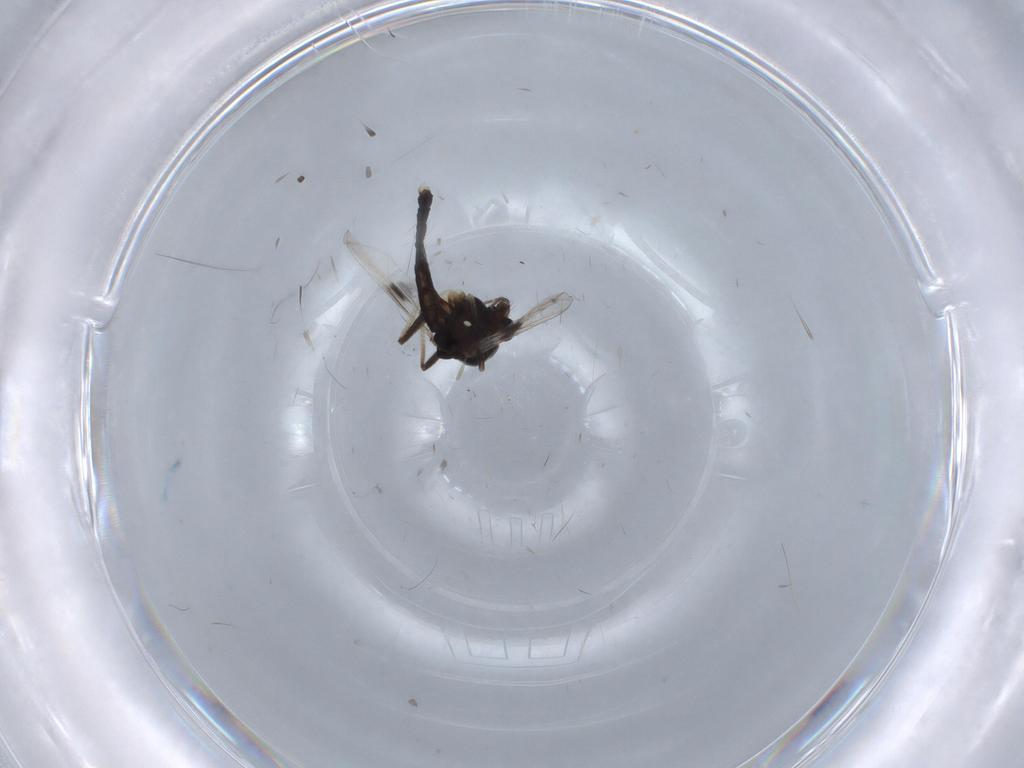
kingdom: Animalia
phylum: Arthropoda
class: Insecta
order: Diptera
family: Chironomidae
